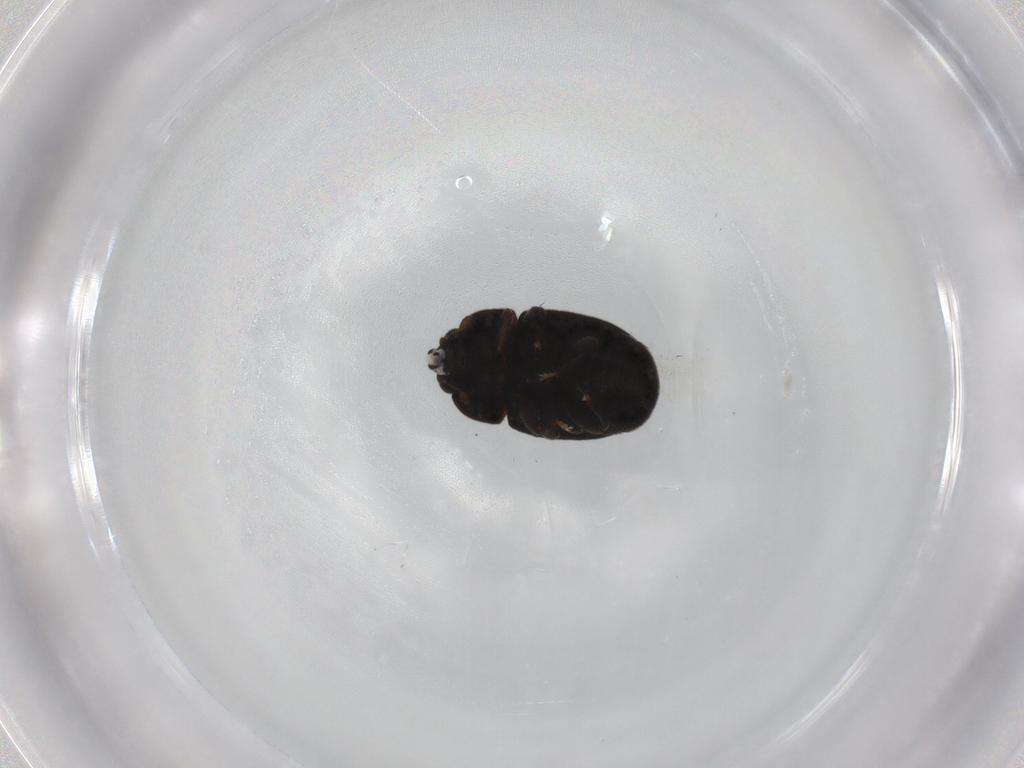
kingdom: Animalia
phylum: Arthropoda
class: Insecta
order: Coleoptera
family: Nitidulidae
